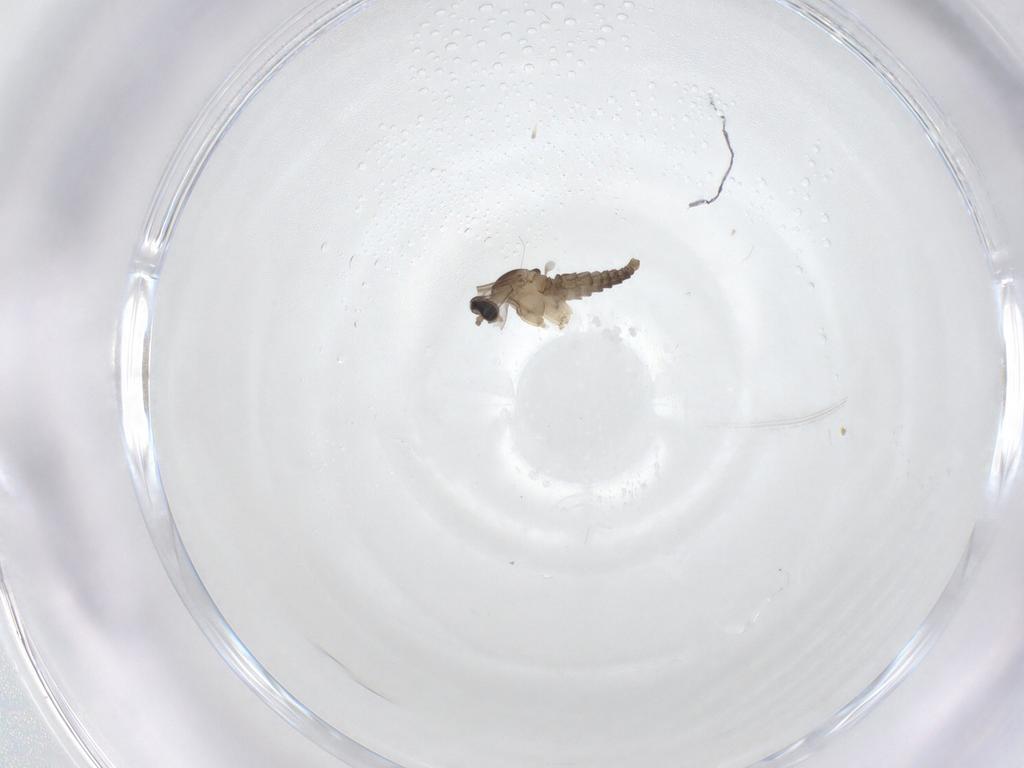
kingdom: Animalia
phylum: Arthropoda
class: Insecta
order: Diptera
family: Cecidomyiidae
